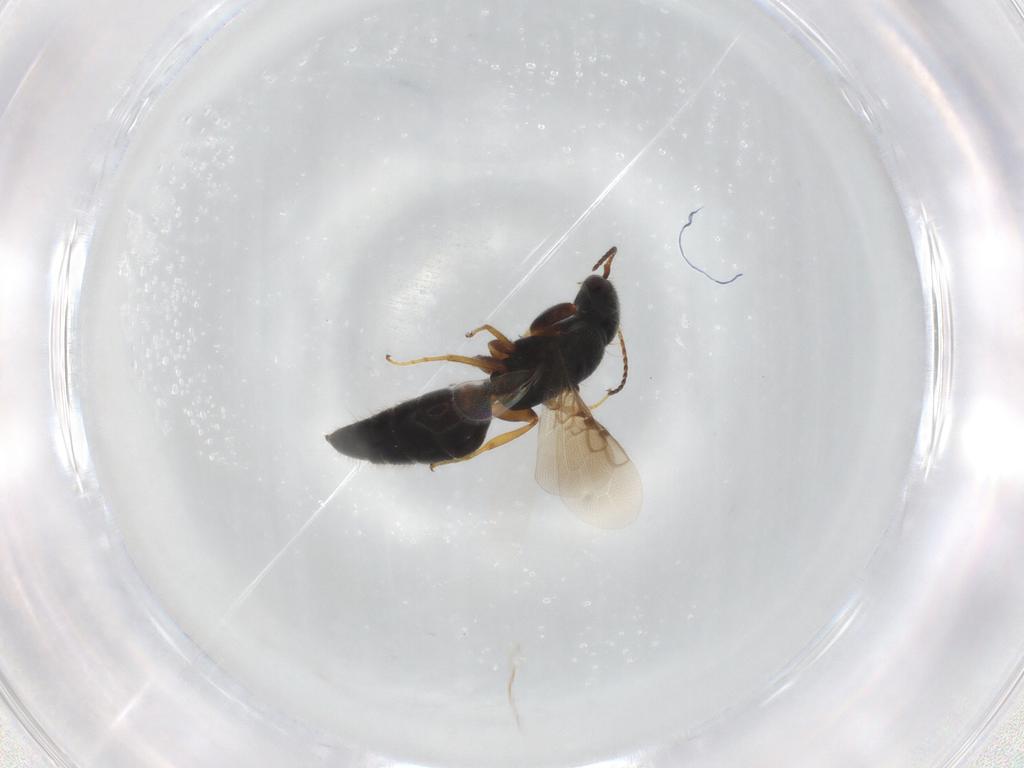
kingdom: Animalia
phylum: Arthropoda
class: Insecta
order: Hymenoptera
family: Bethylidae
